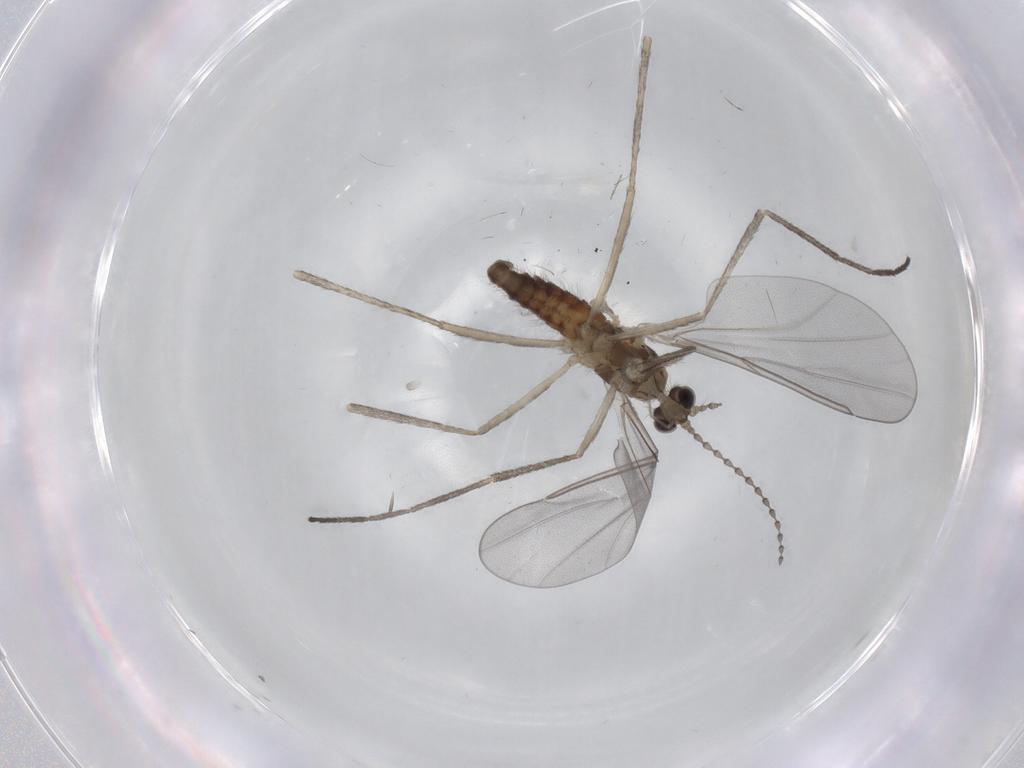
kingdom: Animalia
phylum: Arthropoda
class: Insecta
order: Diptera
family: Cecidomyiidae
